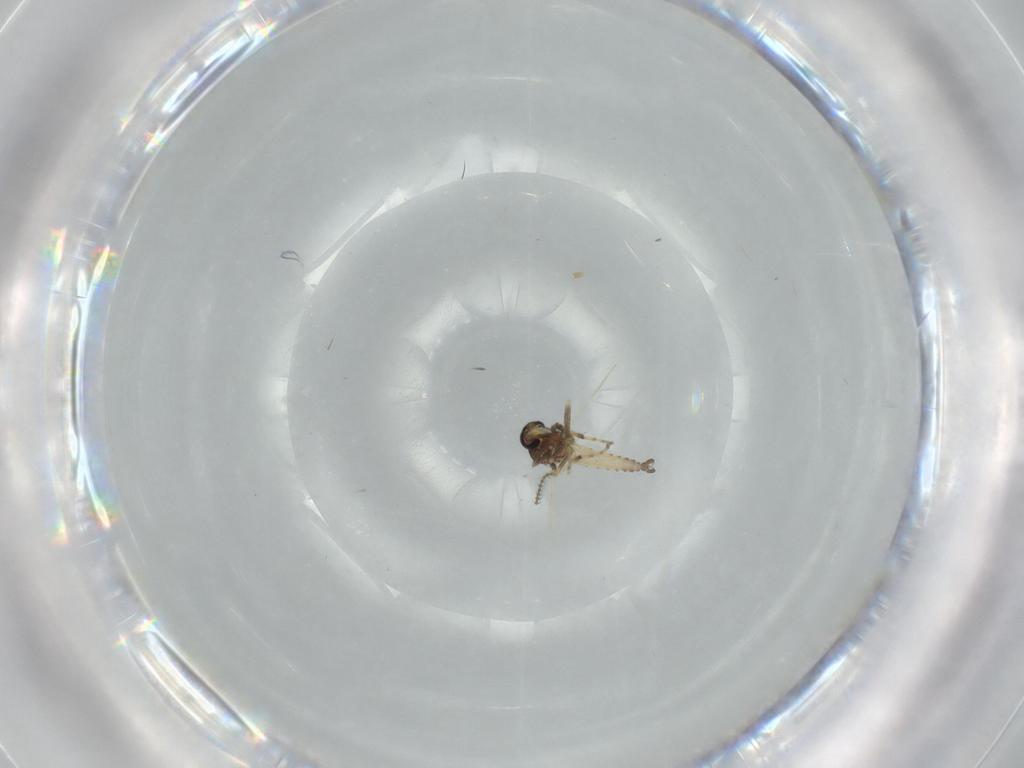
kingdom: Animalia
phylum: Arthropoda
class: Insecta
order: Diptera
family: Chironomidae
